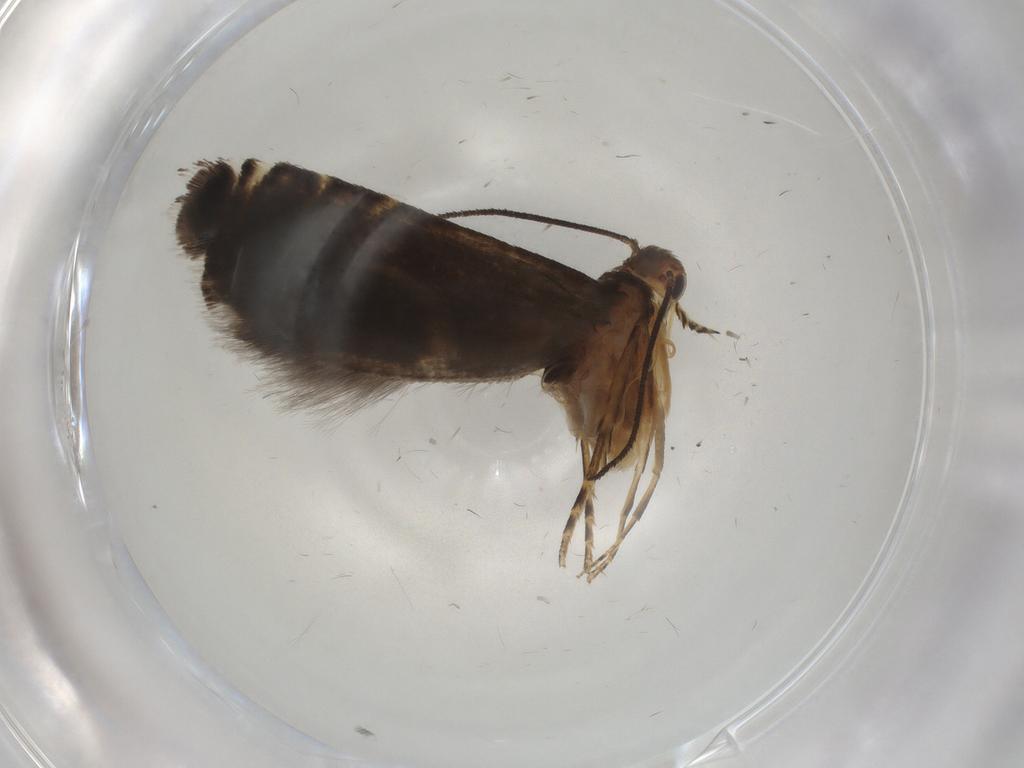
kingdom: Animalia
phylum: Arthropoda
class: Insecta
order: Lepidoptera
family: Glyphipterigidae
